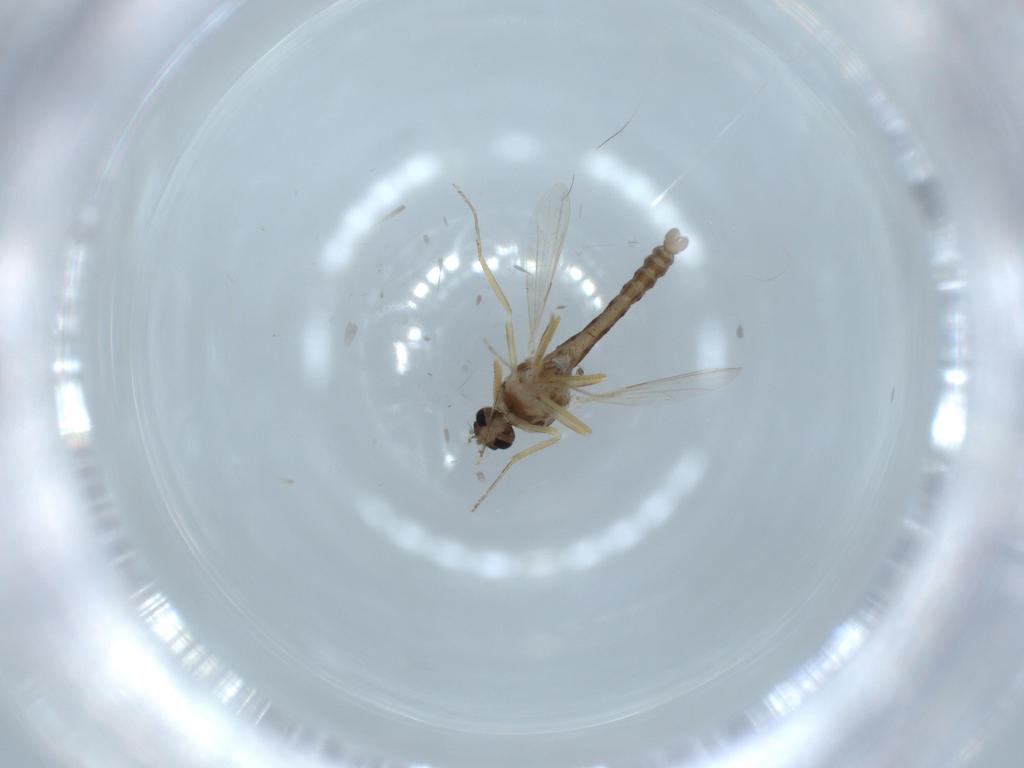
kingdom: Animalia
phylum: Arthropoda
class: Insecta
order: Diptera
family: Ceratopogonidae
